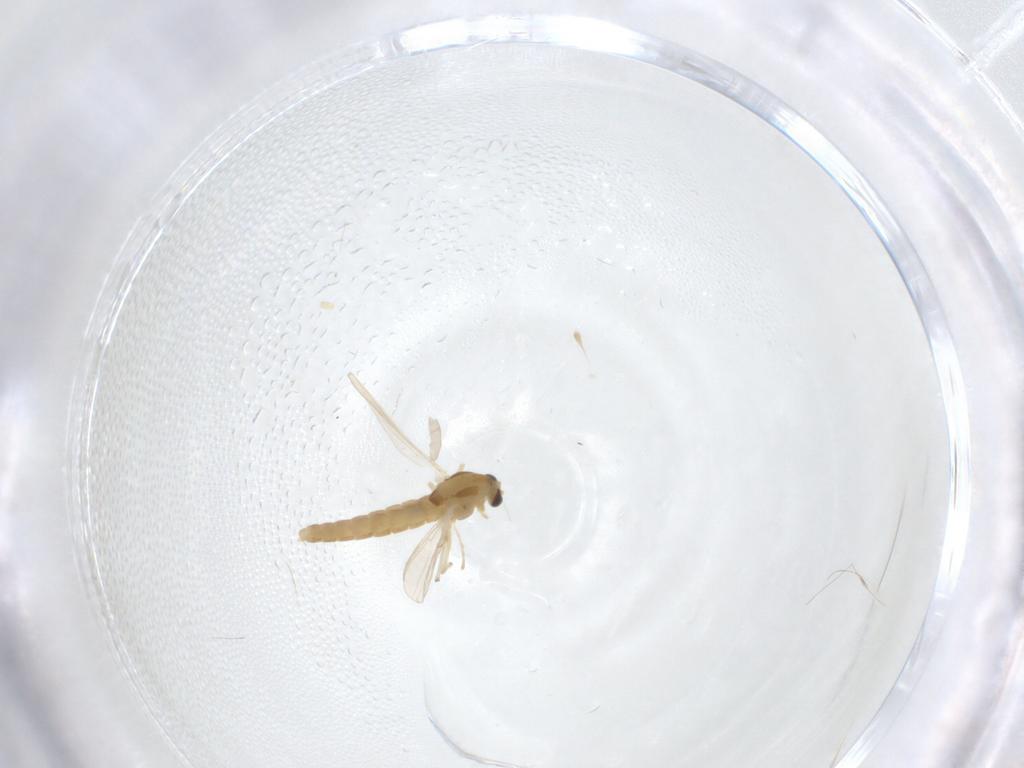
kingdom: Animalia
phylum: Arthropoda
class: Insecta
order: Diptera
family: Chironomidae
